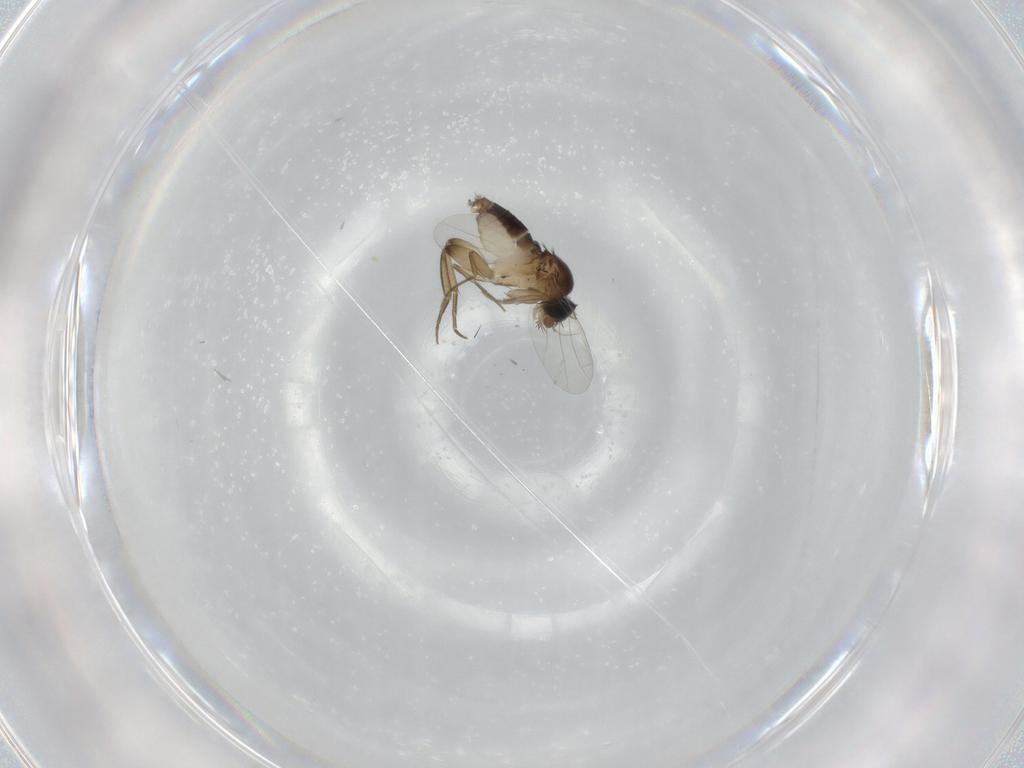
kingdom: Animalia
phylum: Arthropoda
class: Insecta
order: Diptera
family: Phoridae
